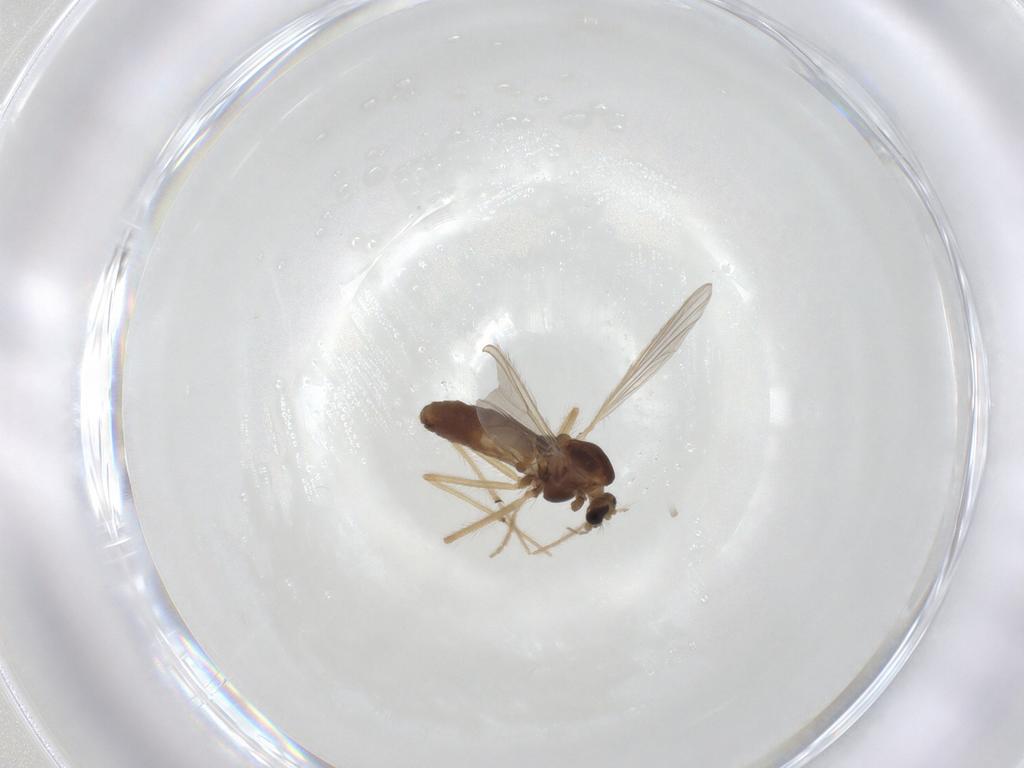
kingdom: Animalia
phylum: Arthropoda
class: Insecta
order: Diptera
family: Chironomidae
